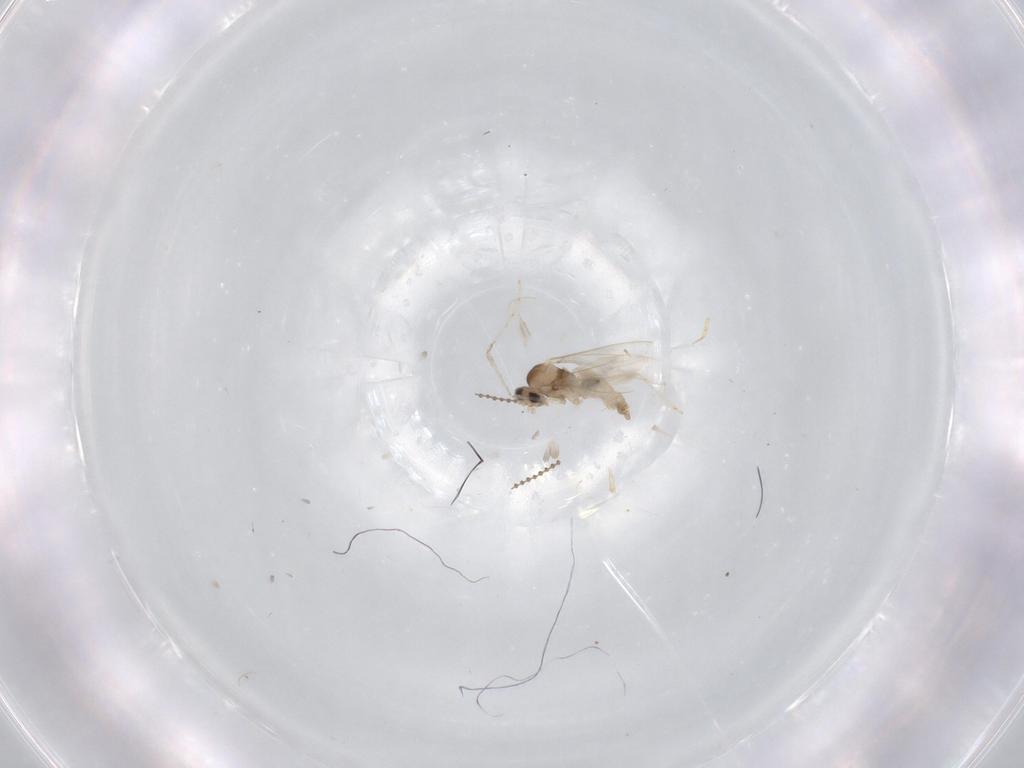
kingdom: Animalia
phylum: Arthropoda
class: Insecta
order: Diptera
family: Cecidomyiidae
